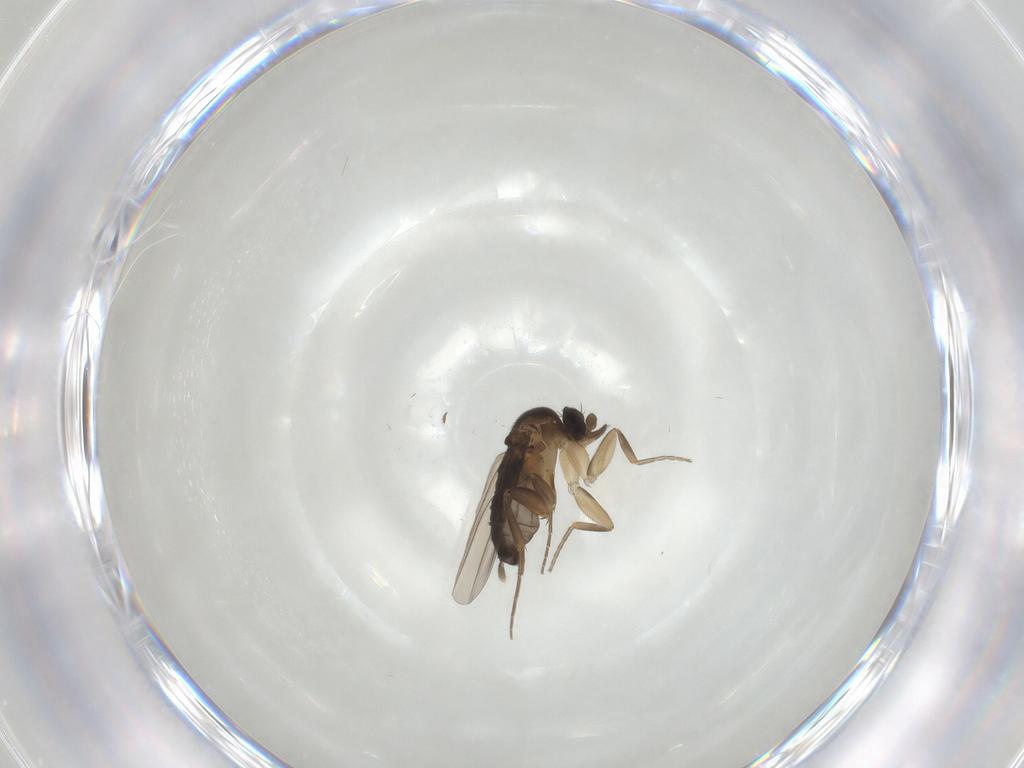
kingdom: Animalia
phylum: Arthropoda
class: Insecta
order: Diptera
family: Phoridae
